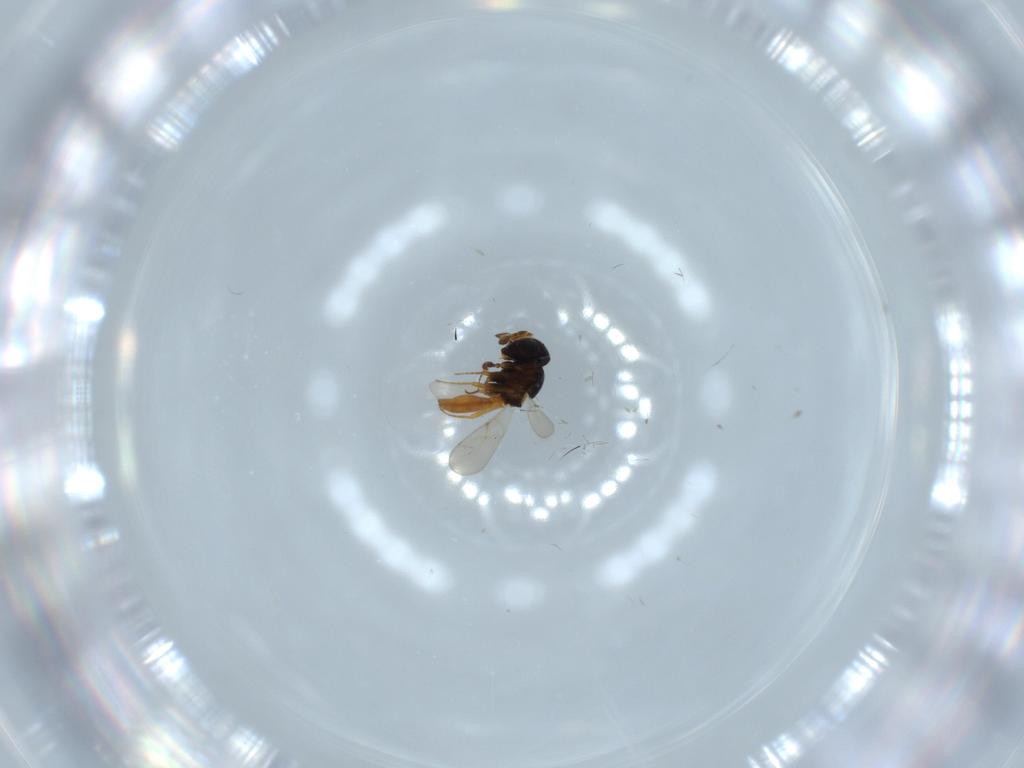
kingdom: Animalia
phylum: Arthropoda
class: Insecta
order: Hymenoptera
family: Scelionidae
